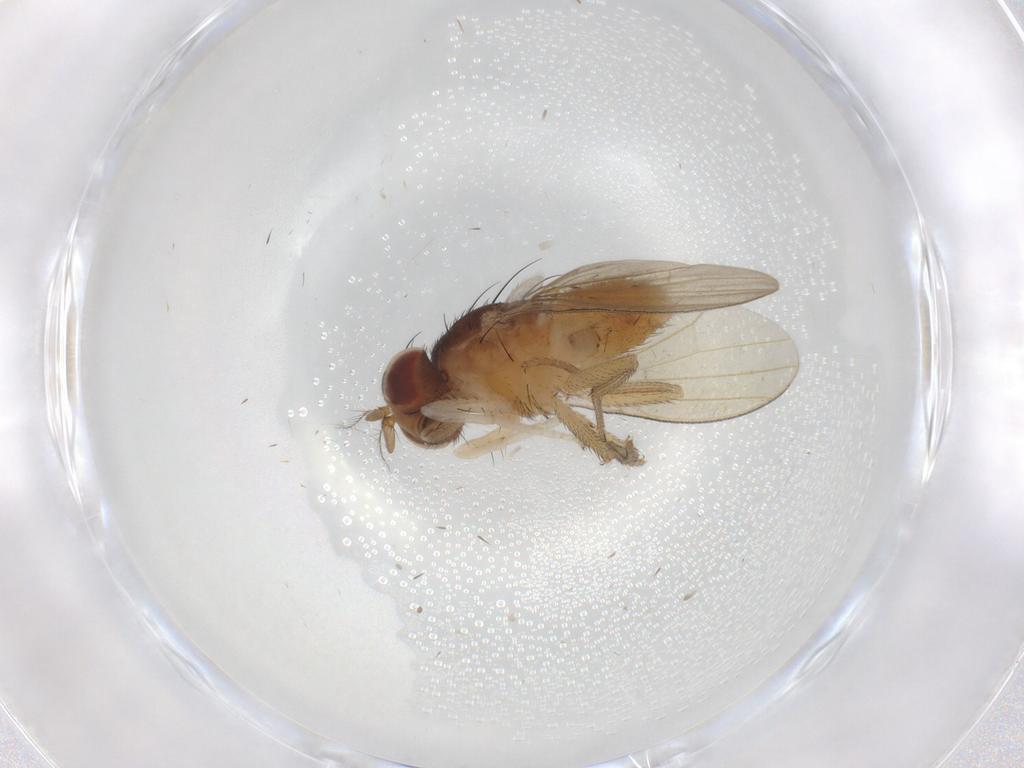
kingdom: Animalia
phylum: Arthropoda
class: Insecta
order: Diptera
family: Lauxaniidae
